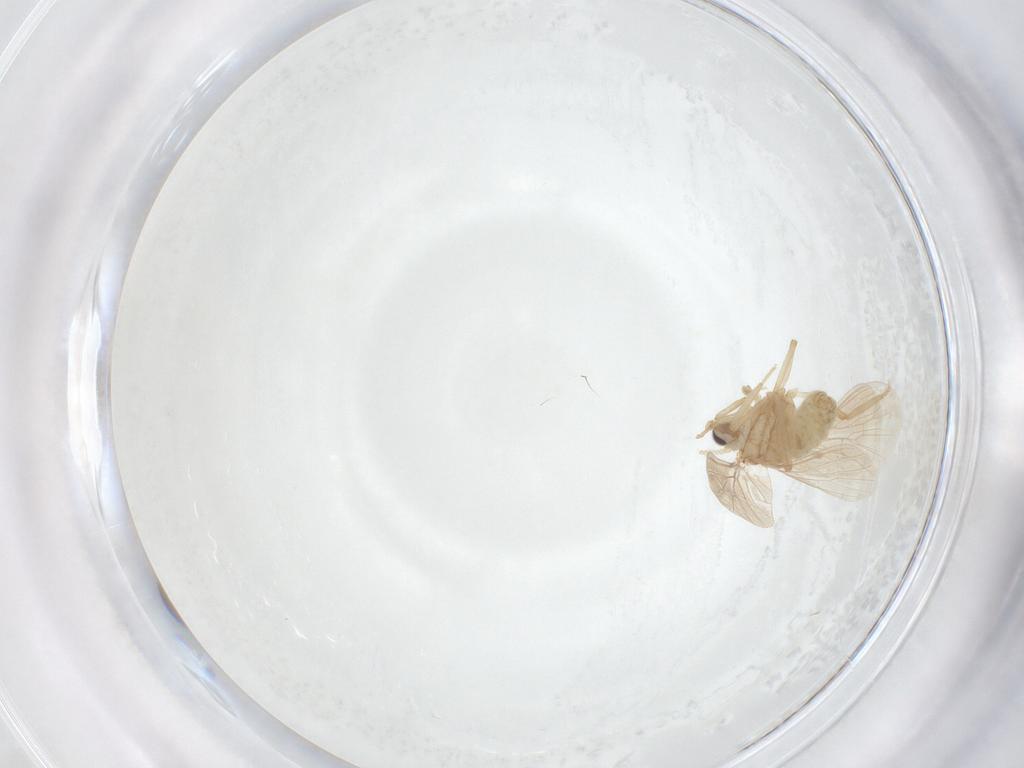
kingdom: Animalia
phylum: Arthropoda
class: Insecta
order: Neuroptera
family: Coniopterygidae
